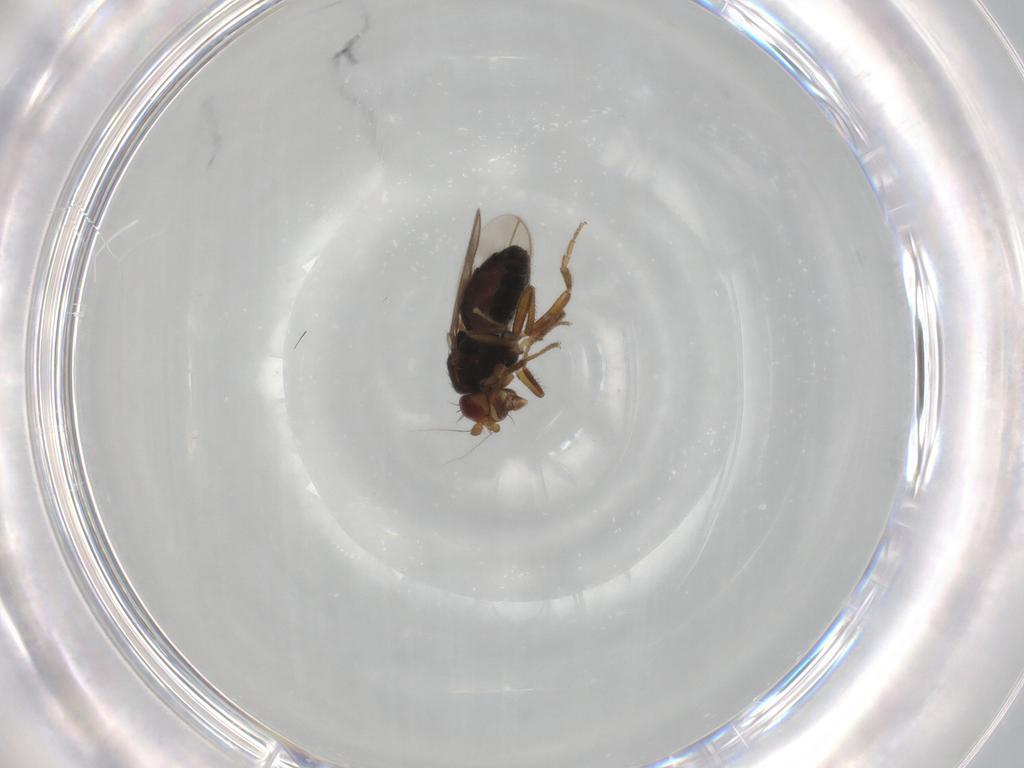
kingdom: Animalia
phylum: Arthropoda
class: Insecta
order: Diptera
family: Sphaeroceridae
